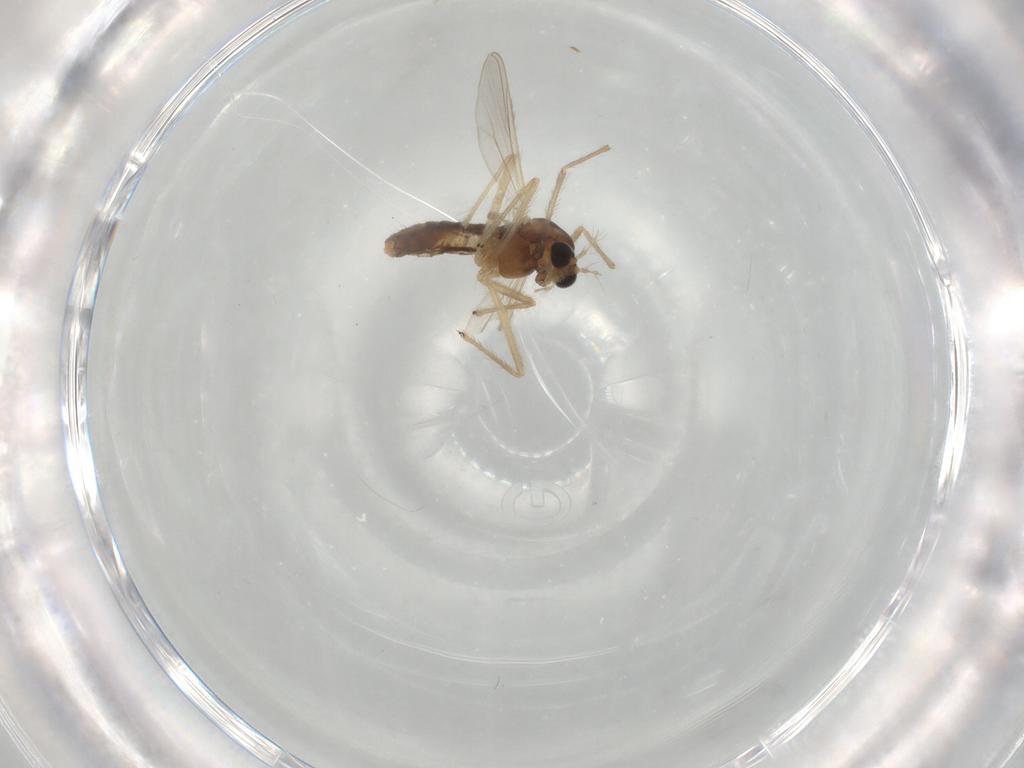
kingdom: Animalia
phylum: Arthropoda
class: Insecta
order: Diptera
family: Chironomidae
